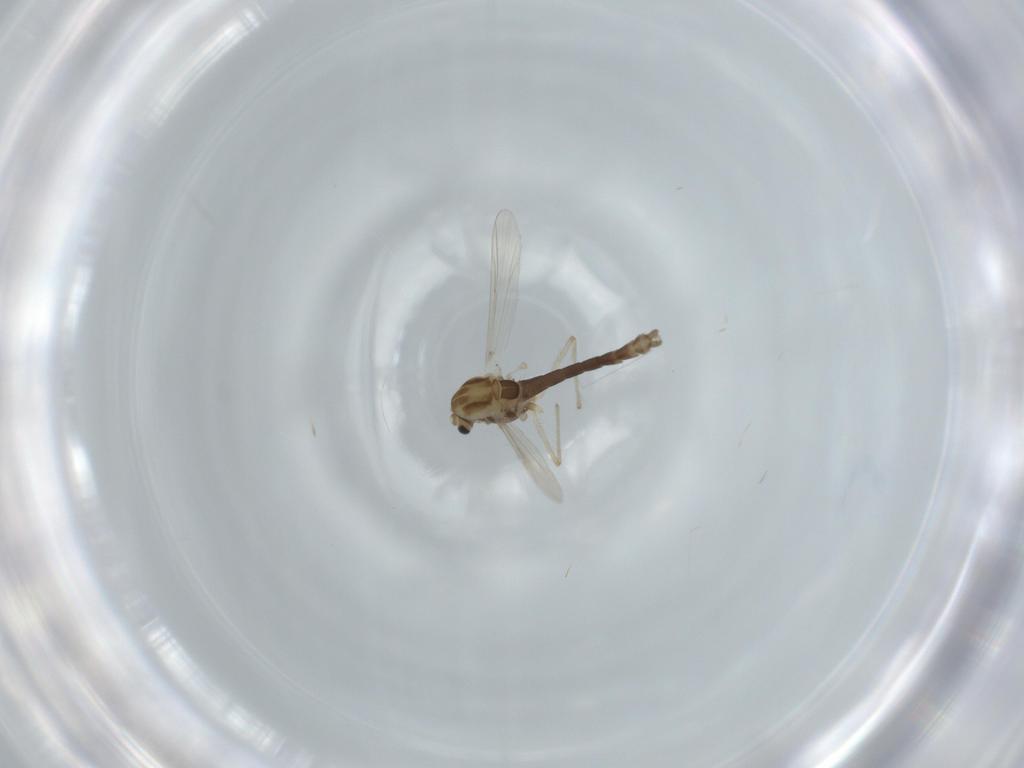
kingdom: Animalia
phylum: Arthropoda
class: Insecta
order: Diptera
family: Chironomidae
